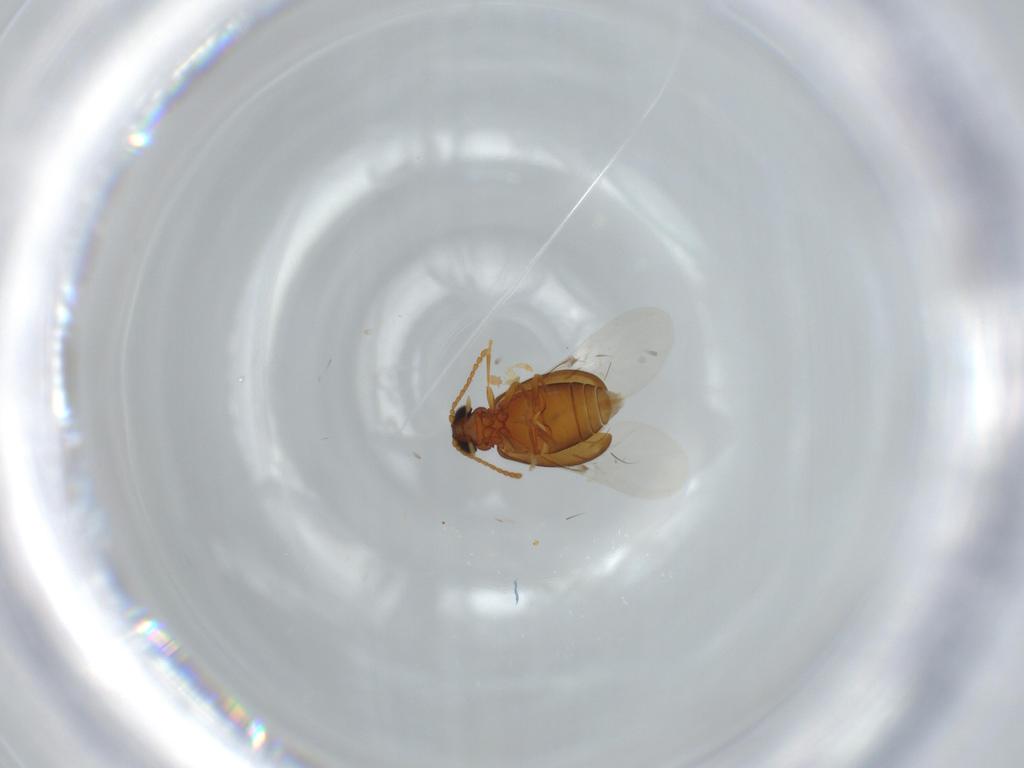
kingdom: Animalia
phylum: Arthropoda
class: Insecta
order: Coleoptera
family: Aderidae
